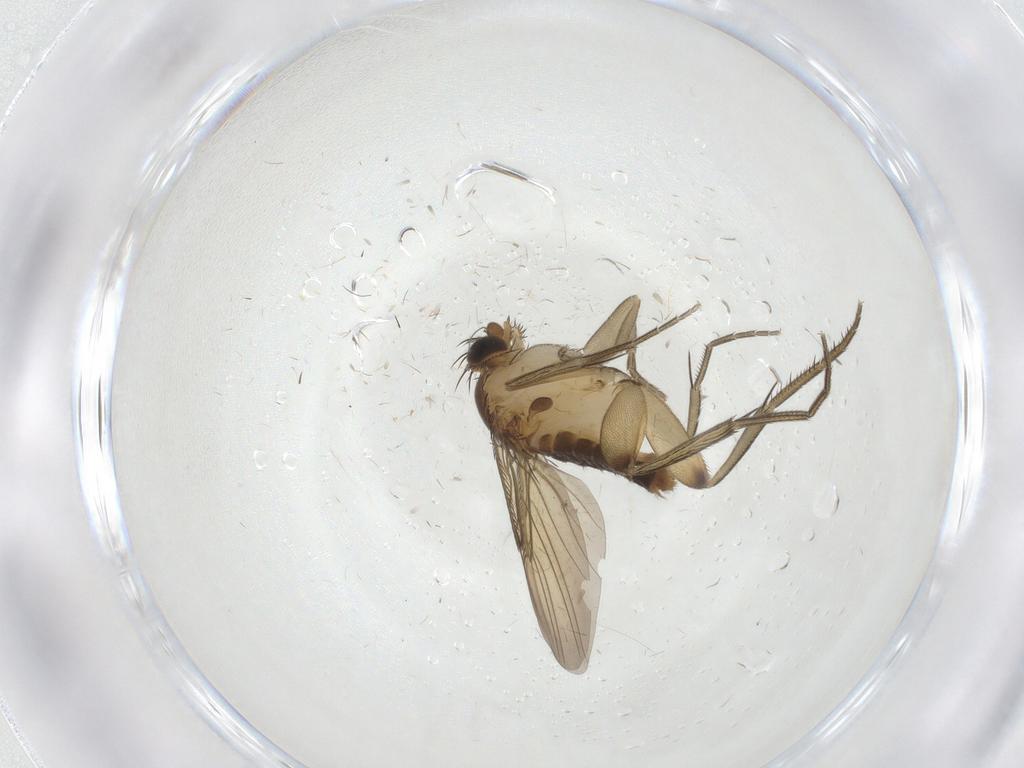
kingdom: Animalia
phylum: Arthropoda
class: Insecta
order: Diptera
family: Phoridae
